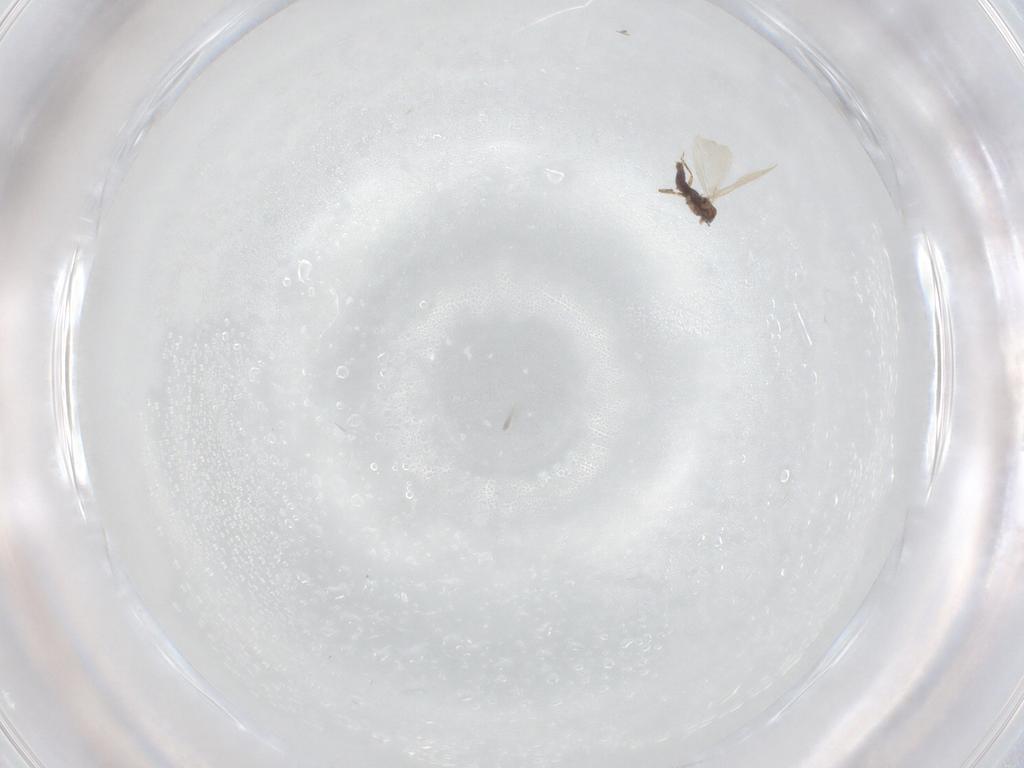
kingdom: Animalia
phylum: Arthropoda
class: Insecta
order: Hemiptera
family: Pseudococcidae
